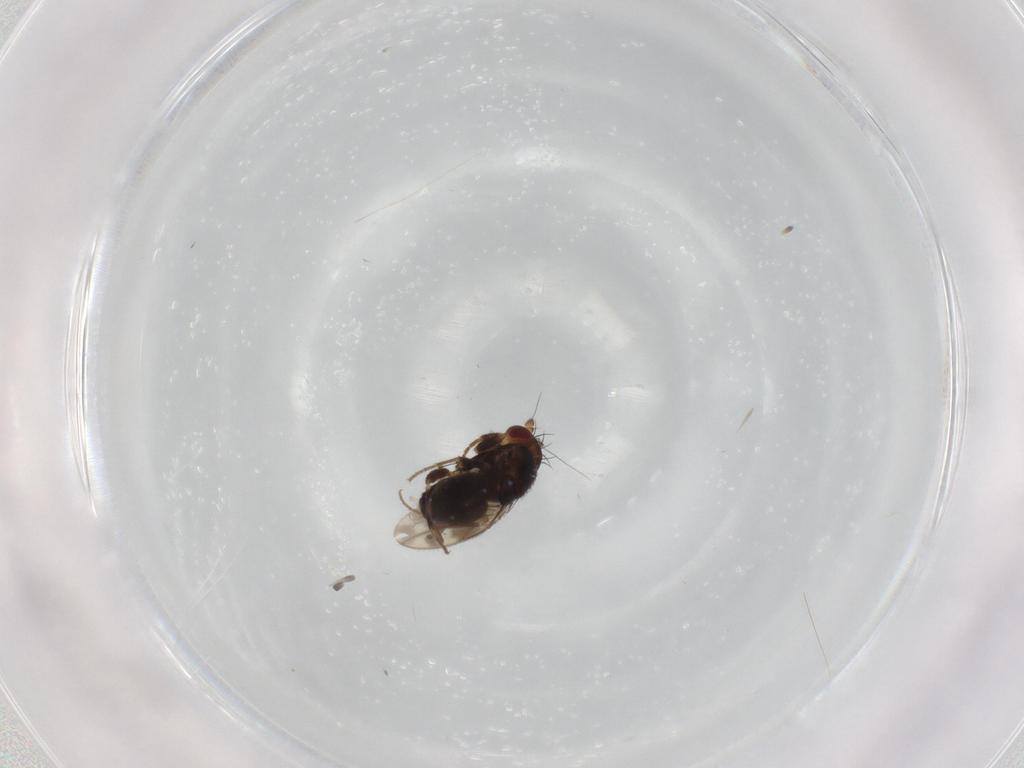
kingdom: Animalia
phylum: Arthropoda
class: Insecta
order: Diptera
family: Sphaeroceridae
